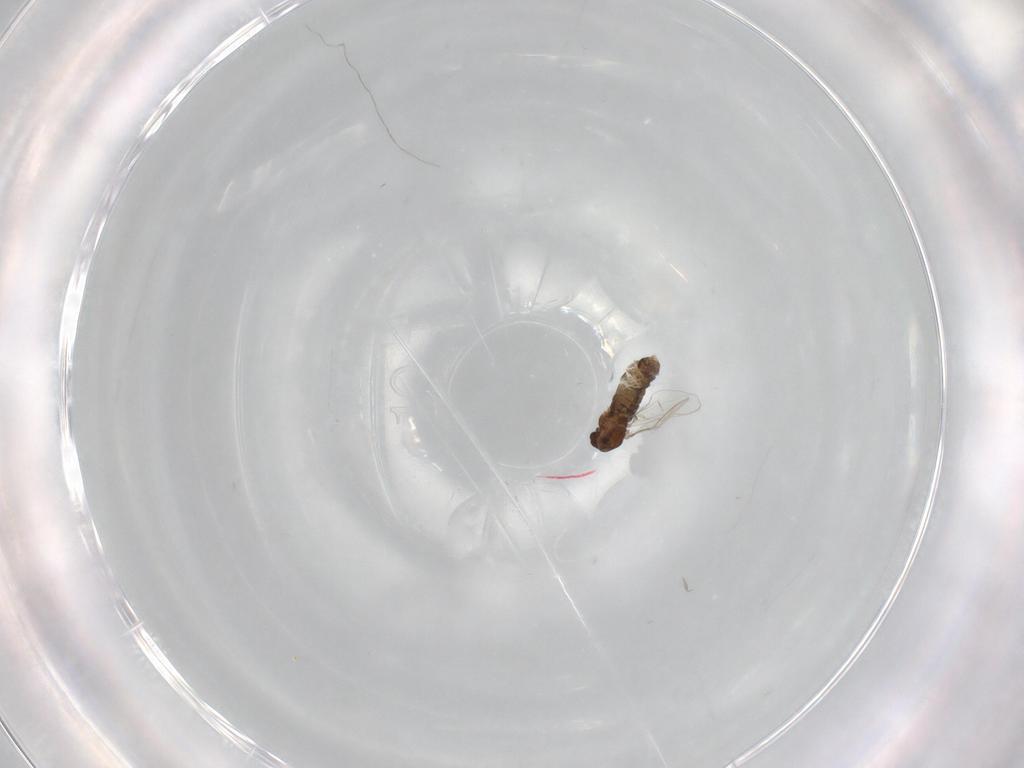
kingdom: Animalia
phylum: Arthropoda
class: Insecta
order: Diptera
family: Chironomidae
